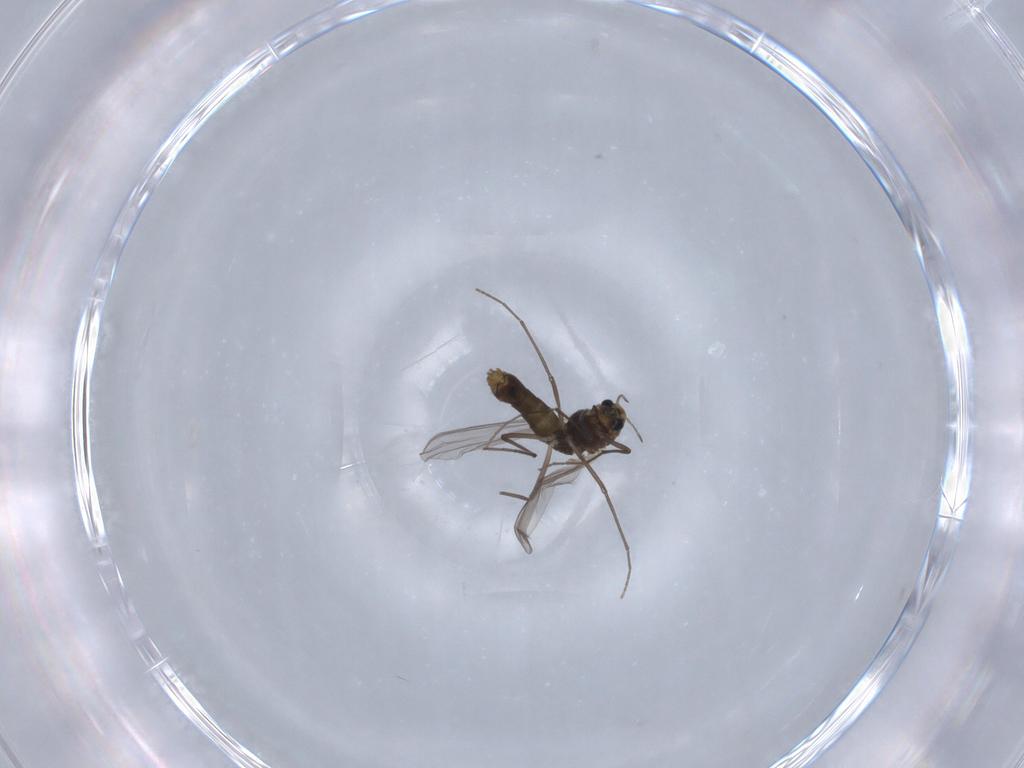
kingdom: Animalia
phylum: Arthropoda
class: Insecta
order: Diptera
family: Chironomidae
